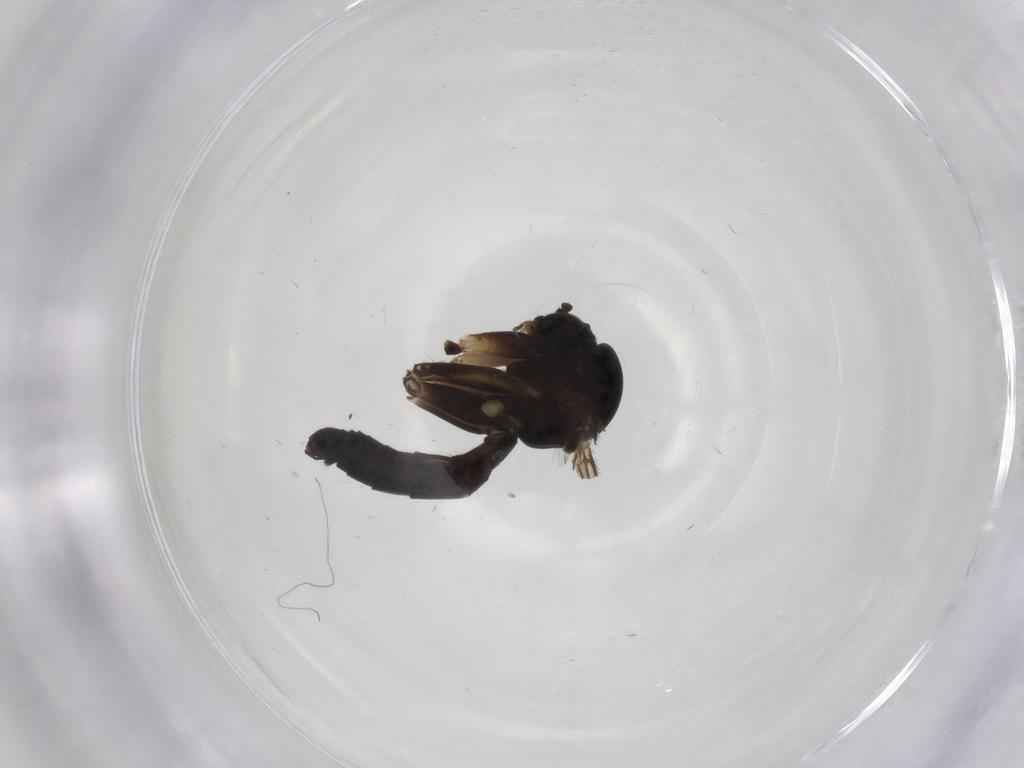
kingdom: Animalia
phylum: Arthropoda
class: Insecta
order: Diptera
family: Mycetophilidae
